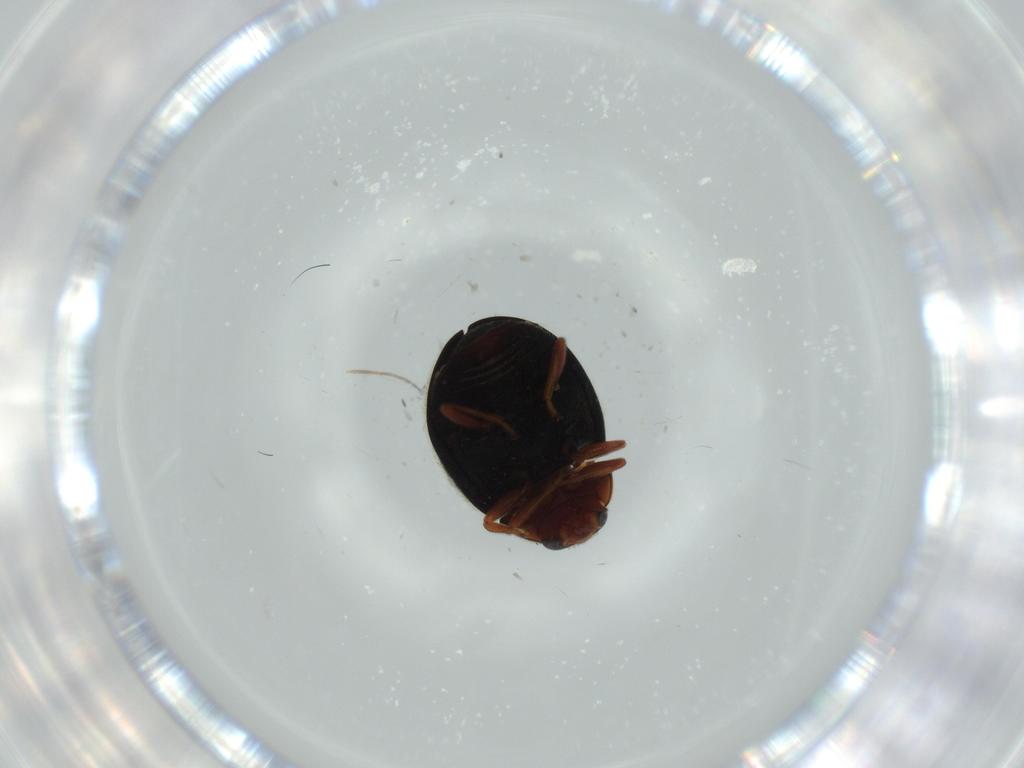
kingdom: Animalia
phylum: Arthropoda
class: Insecta
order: Coleoptera
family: Coccinellidae
